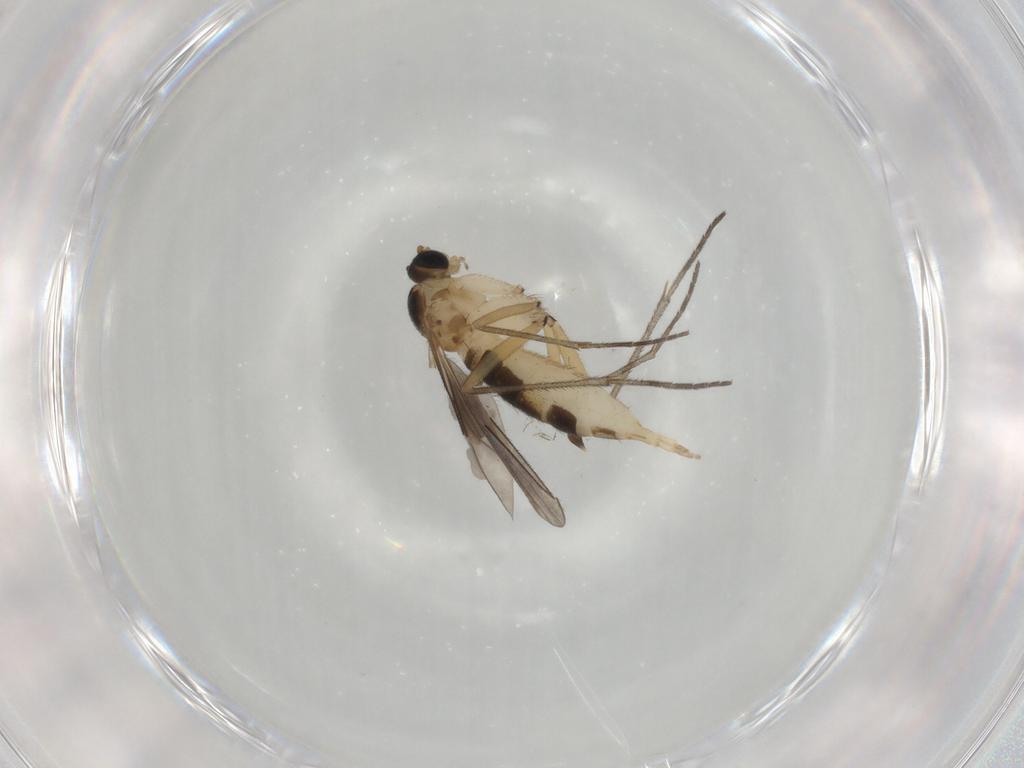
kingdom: Animalia
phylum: Arthropoda
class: Insecta
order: Diptera
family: Sciaridae
